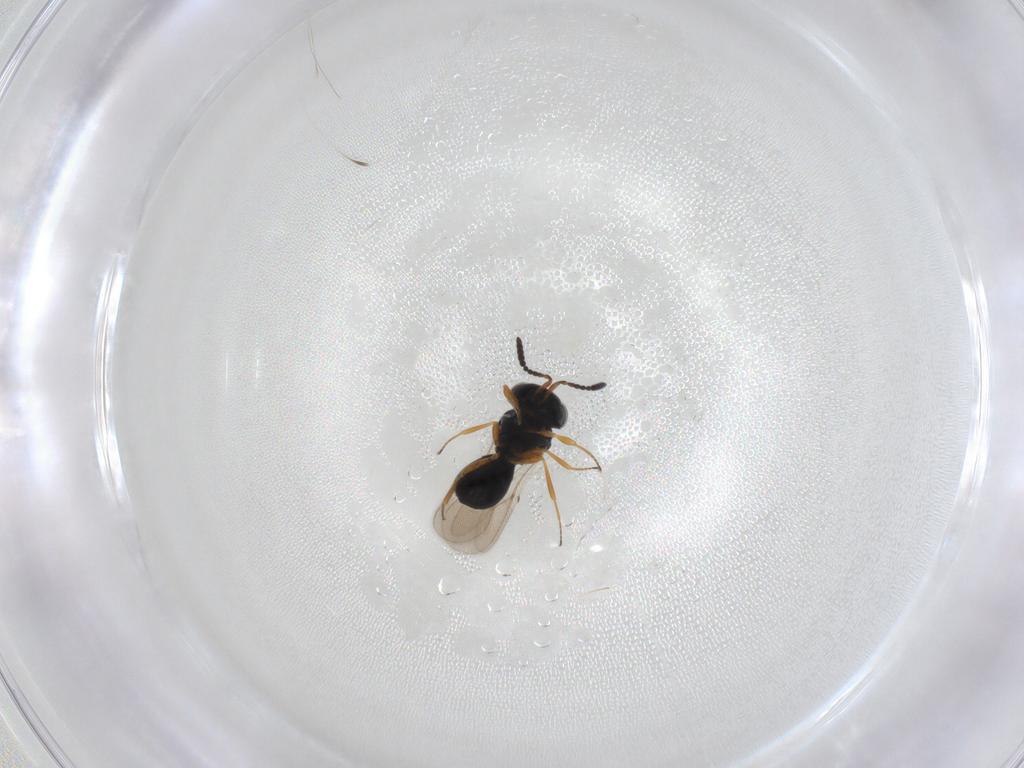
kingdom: Animalia
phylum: Arthropoda
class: Insecta
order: Hymenoptera
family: Scelionidae
